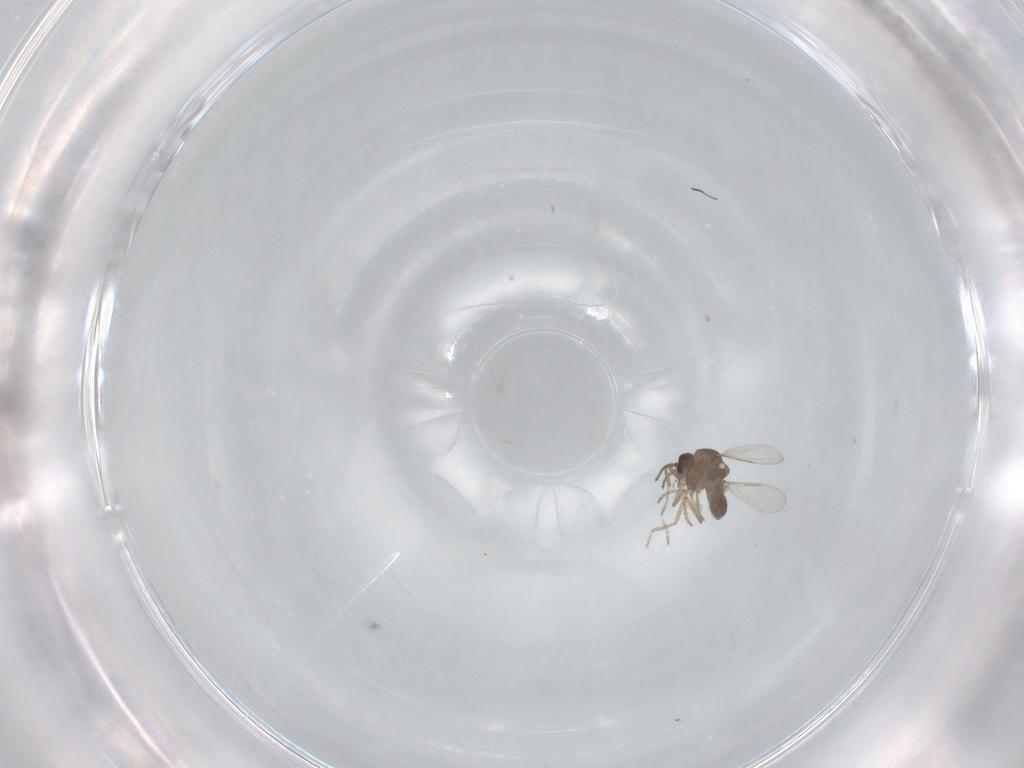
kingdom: Animalia
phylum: Arthropoda
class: Insecta
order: Diptera
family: Ceratopogonidae
